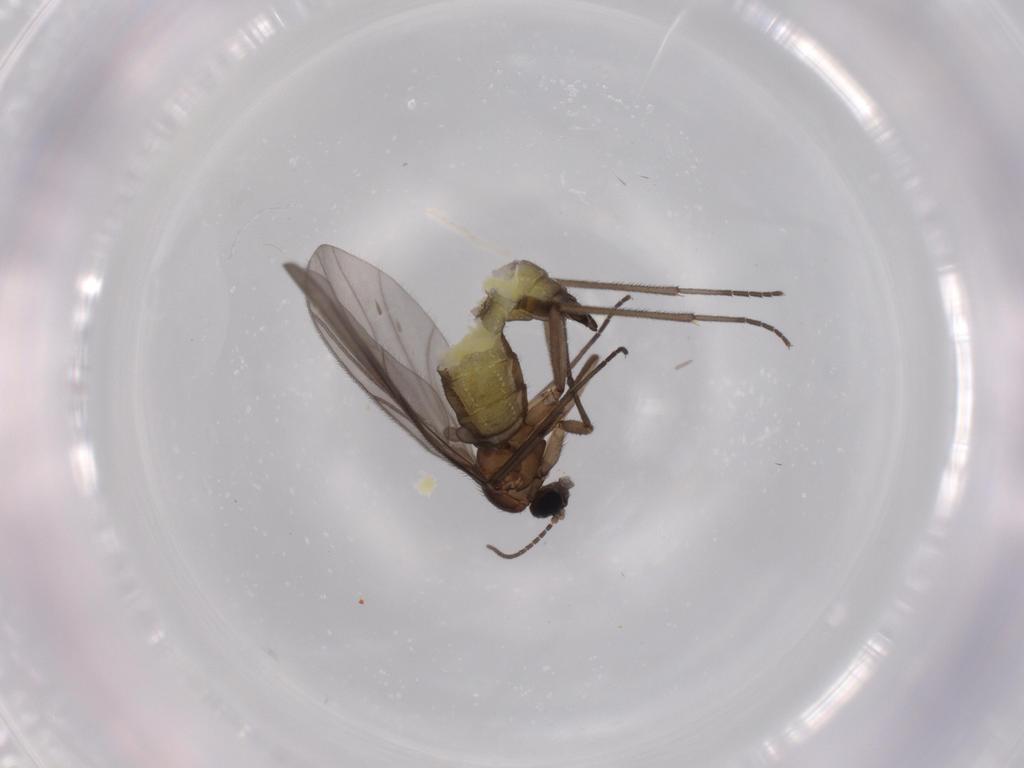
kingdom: Animalia
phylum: Arthropoda
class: Insecta
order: Diptera
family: Sciaridae
